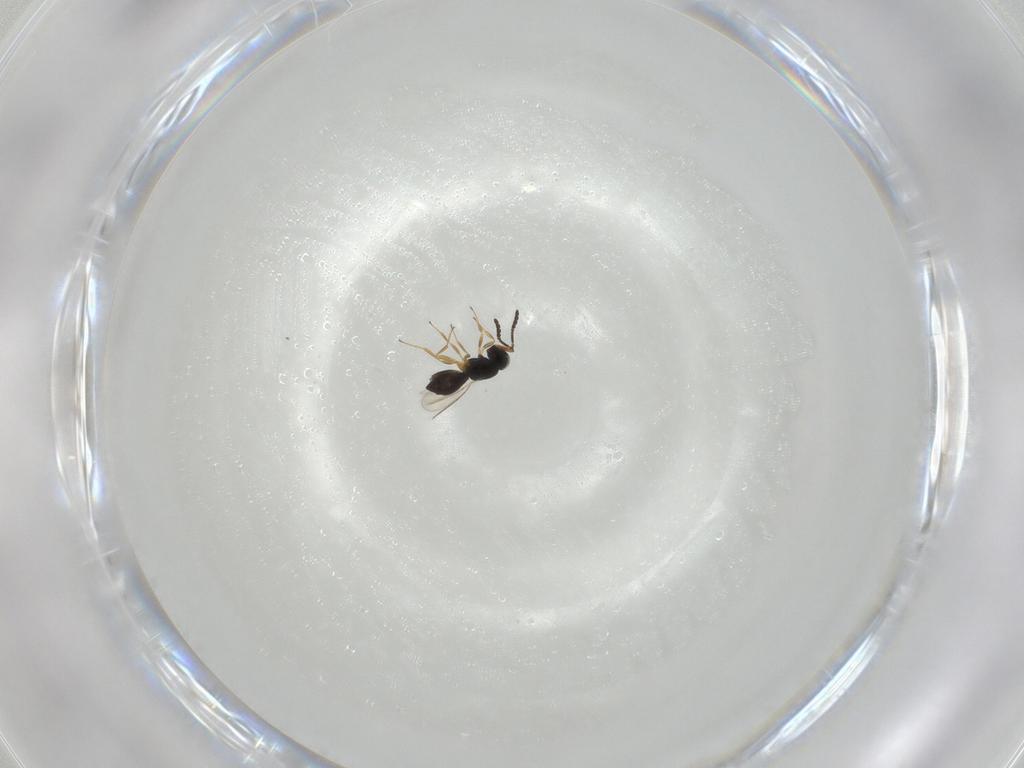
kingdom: Animalia
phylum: Arthropoda
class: Insecta
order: Hymenoptera
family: Scelionidae
